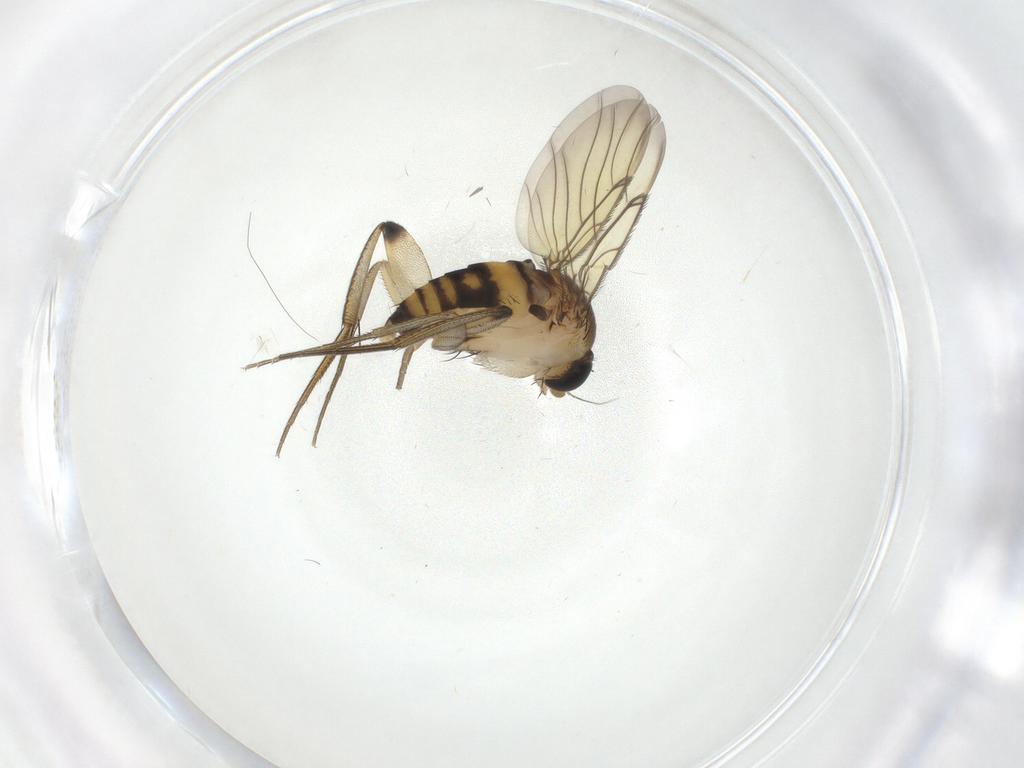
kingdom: Animalia
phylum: Arthropoda
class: Insecta
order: Diptera
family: Phoridae
